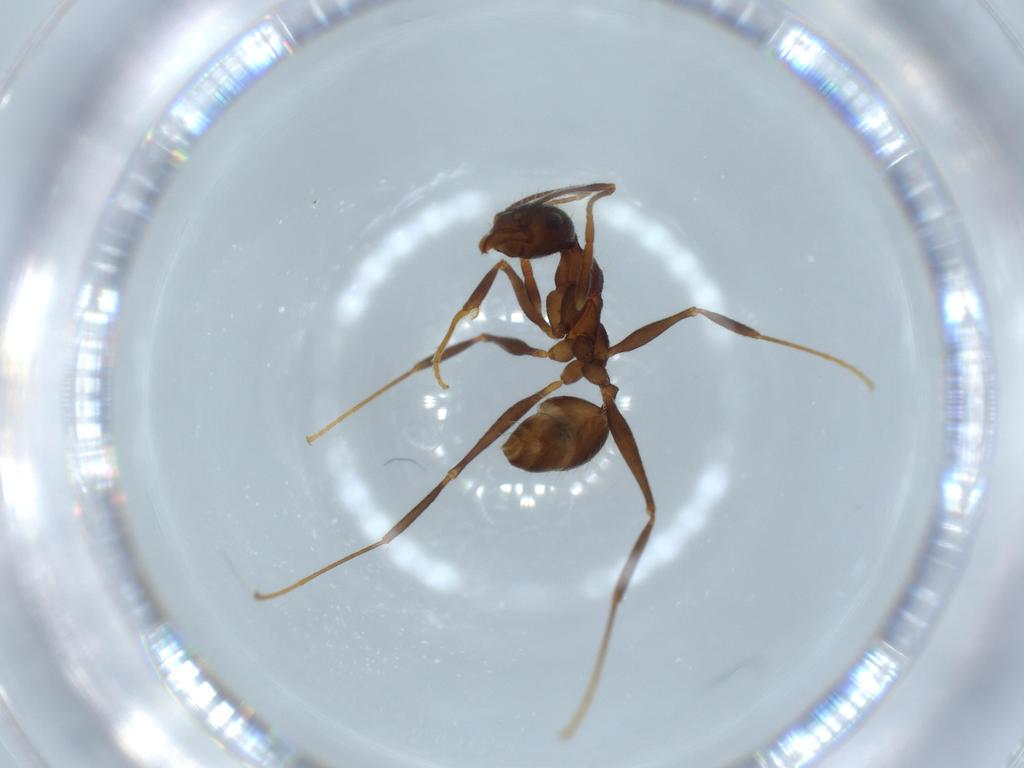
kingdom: Animalia
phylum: Arthropoda
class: Insecta
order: Hymenoptera
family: Formicidae
